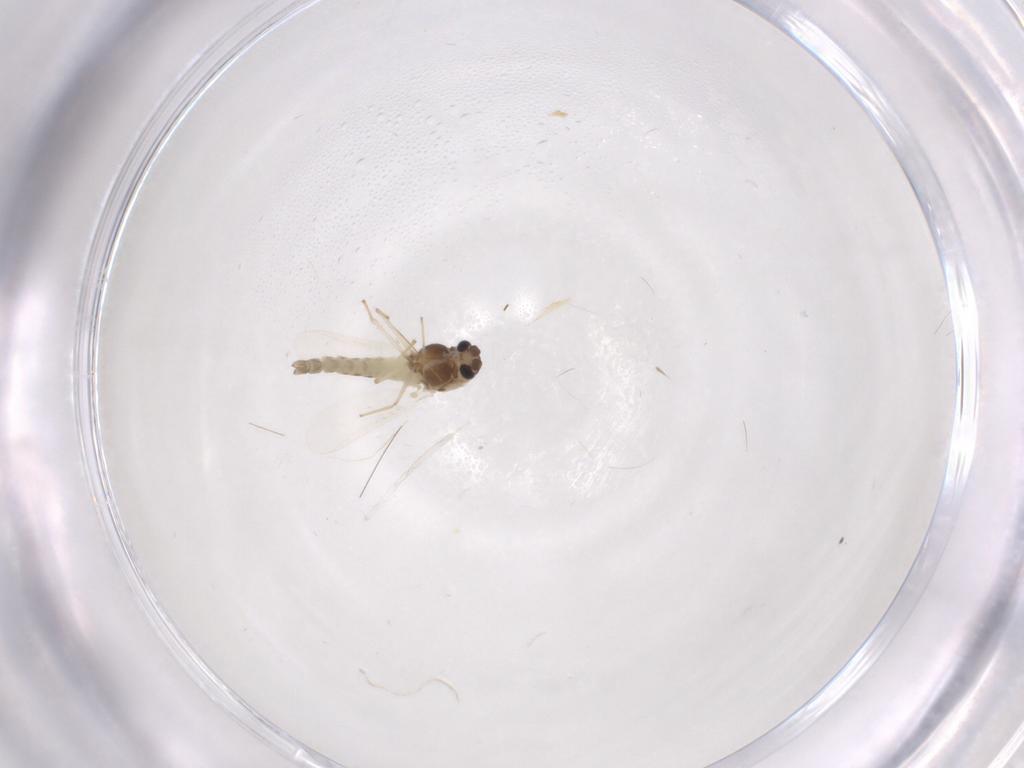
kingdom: Animalia
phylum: Arthropoda
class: Insecta
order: Diptera
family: Chironomidae
